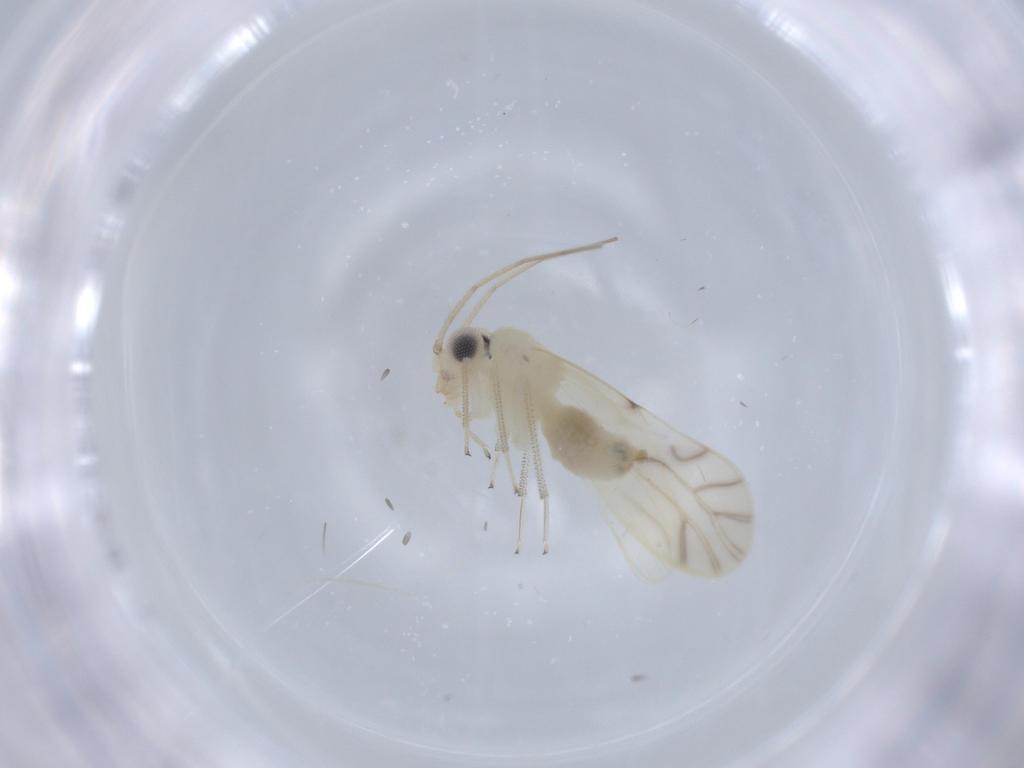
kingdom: Animalia
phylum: Arthropoda
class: Insecta
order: Psocodea
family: Caeciliusidae
